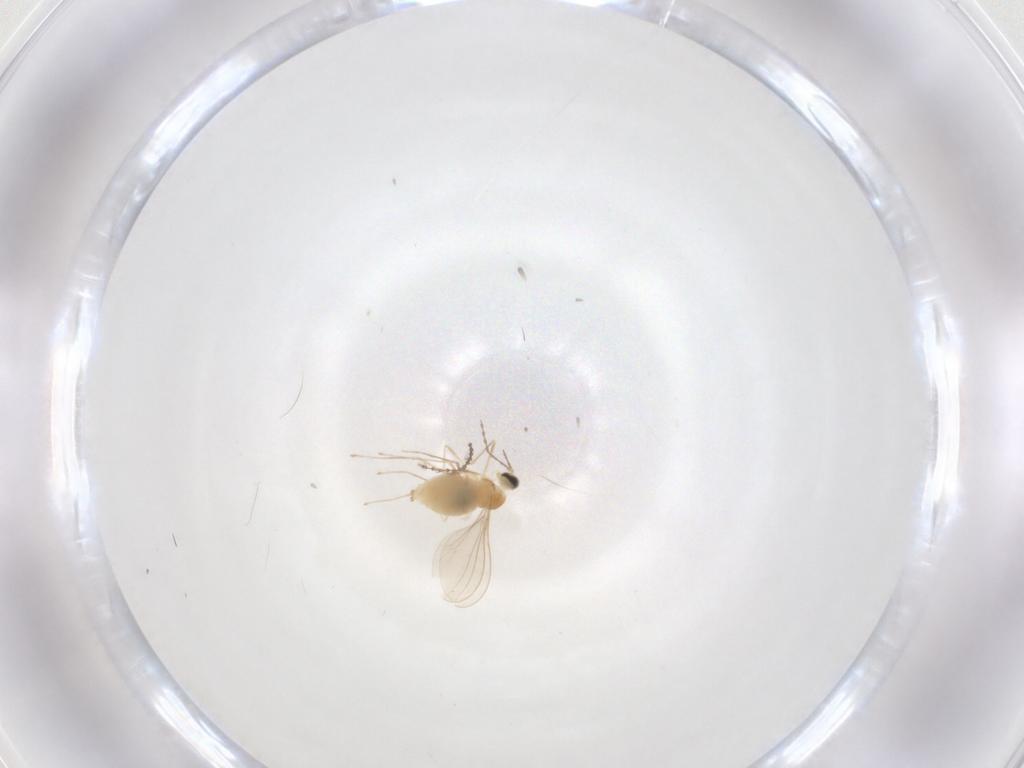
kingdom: Animalia
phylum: Arthropoda
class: Insecta
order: Diptera
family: Cecidomyiidae
